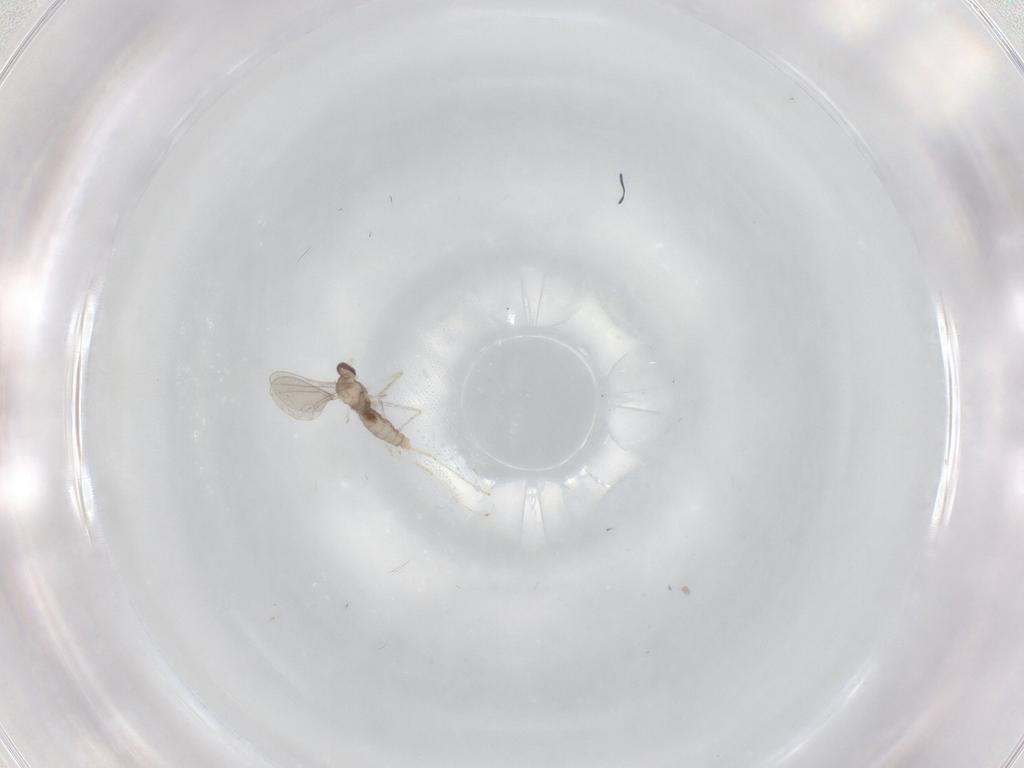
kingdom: Animalia
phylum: Arthropoda
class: Insecta
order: Diptera
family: Cecidomyiidae
